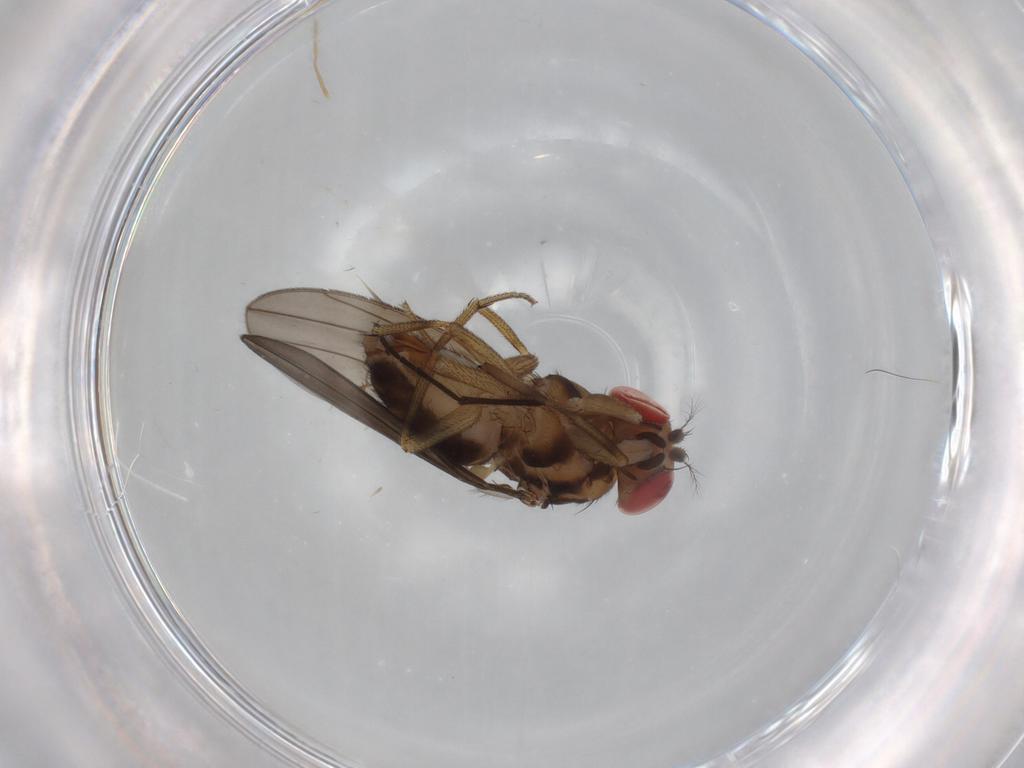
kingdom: Animalia
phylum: Arthropoda
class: Insecta
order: Diptera
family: Drosophilidae
